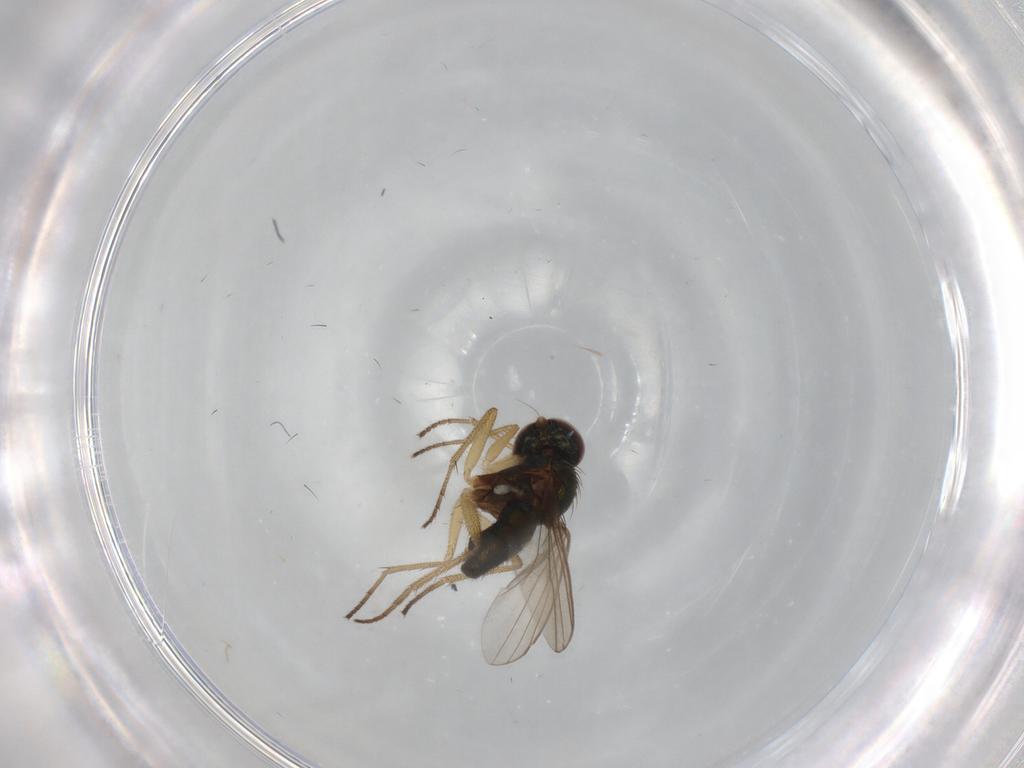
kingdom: Animalia
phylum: Arthropoda
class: Insecta
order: Diptera
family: Dolichopodidae
